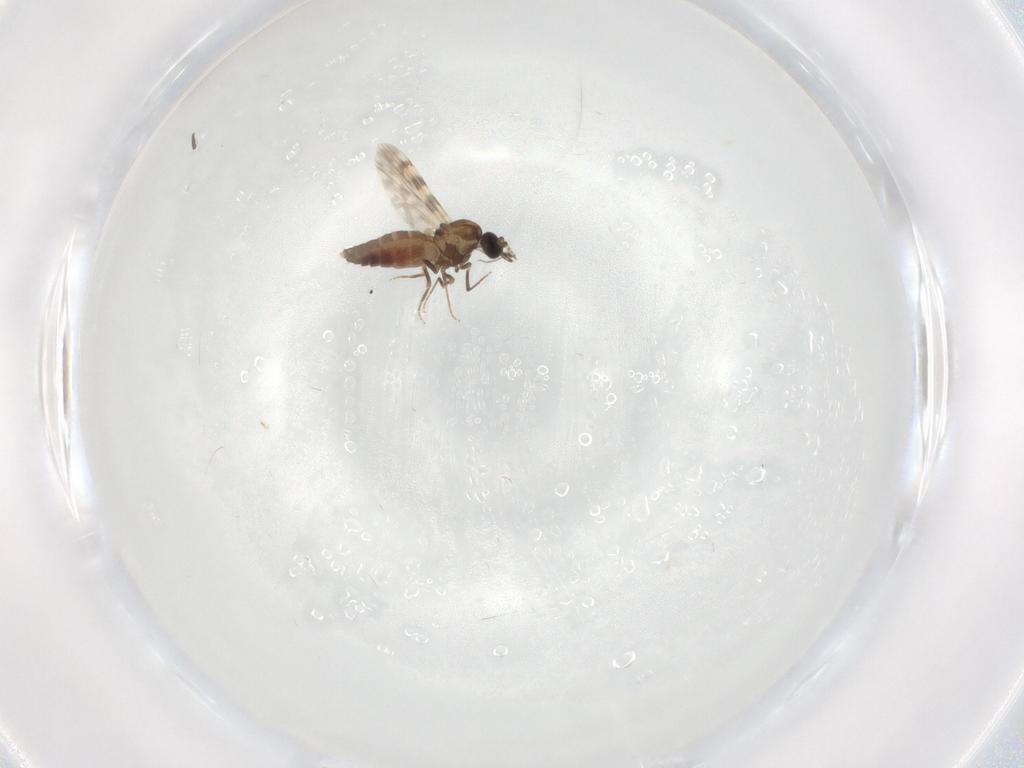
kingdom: Animalia
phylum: Arthropoda
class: Insecta
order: Diptera
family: Ceratopogonidae
